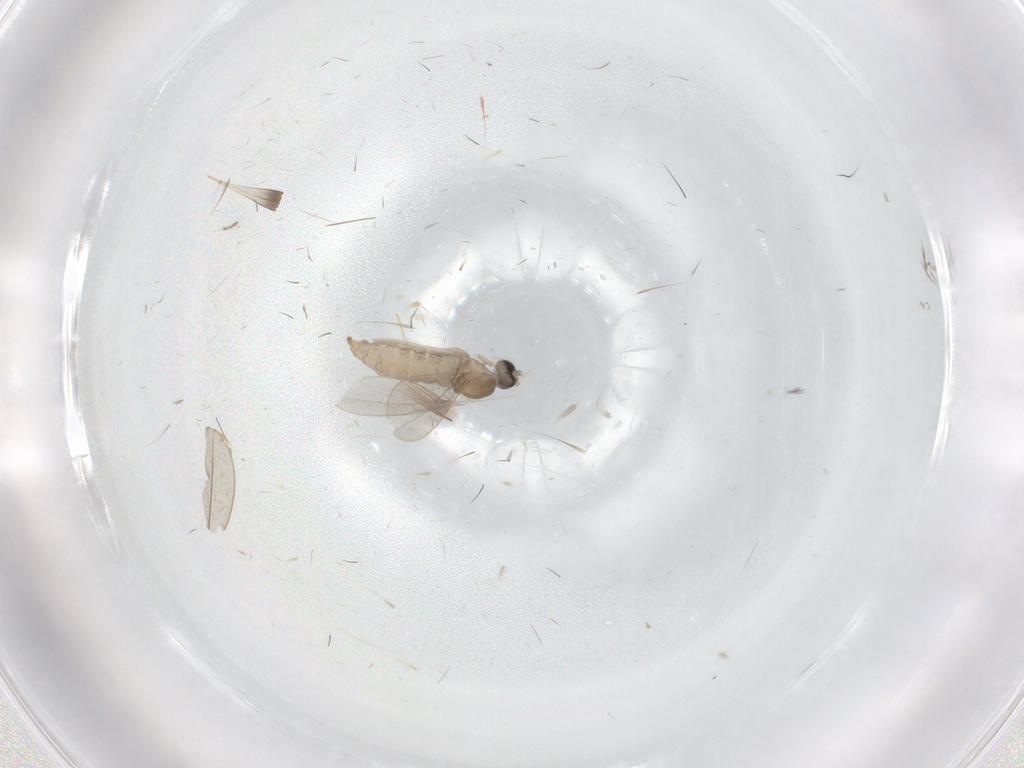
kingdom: Animalia
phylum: Arthropoda
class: Insecta
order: Diptera
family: Cecidomyiidae
